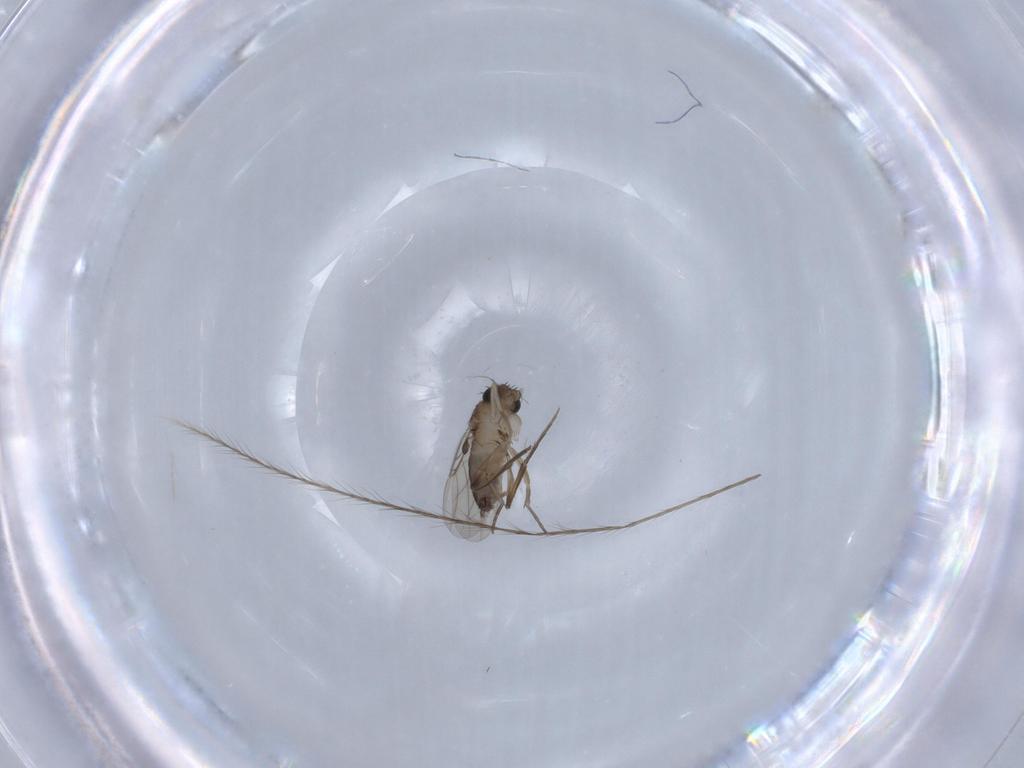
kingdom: Animalia
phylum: Arthropoda
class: Insecta
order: Diptera
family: Phoridae
